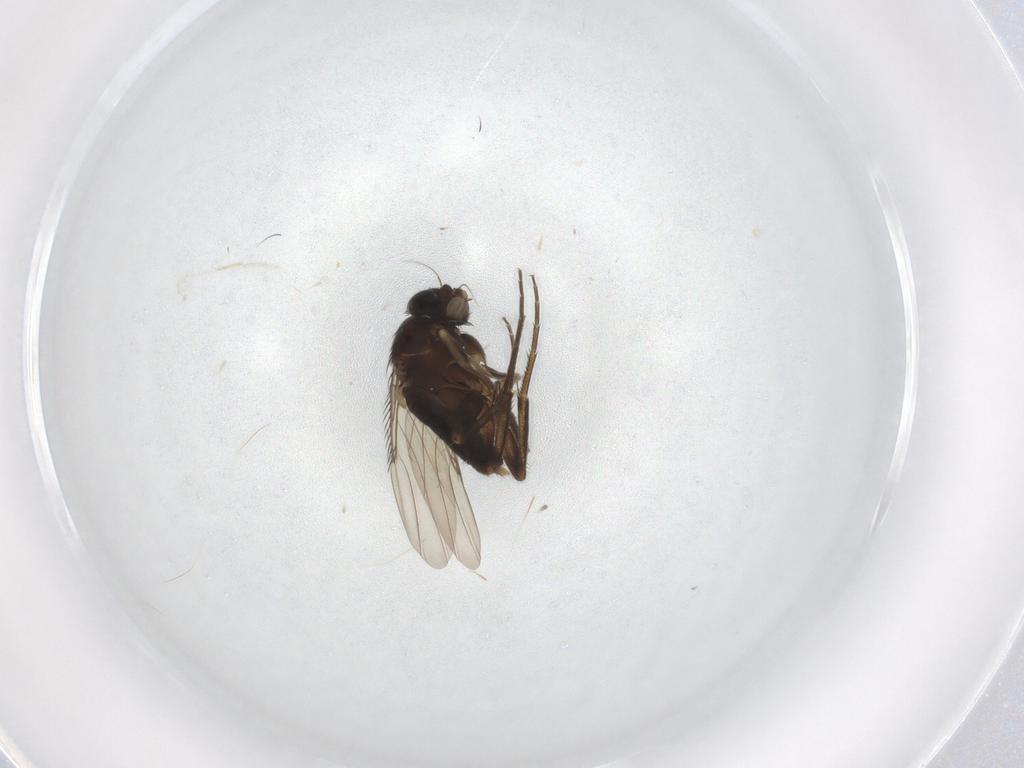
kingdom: Animalia
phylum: Arthropoda
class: Insecta
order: Diptera
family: Phoridae
